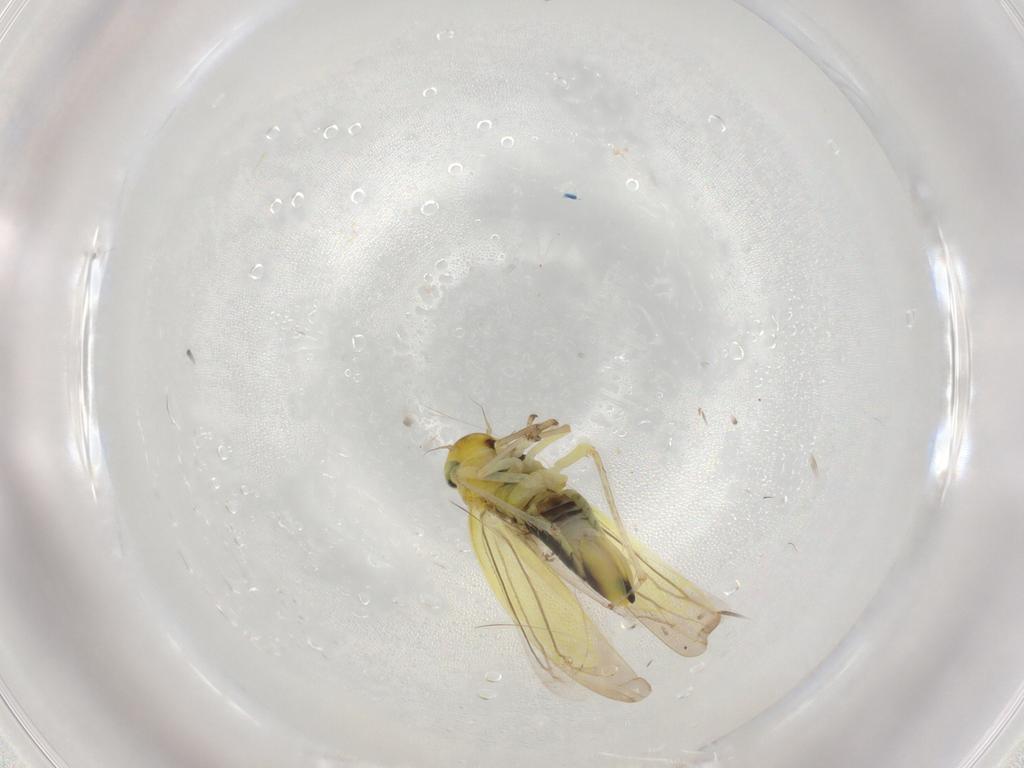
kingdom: Animalia
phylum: Arthropoda
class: Insecta
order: Hemiptera
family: Cicadellidae
